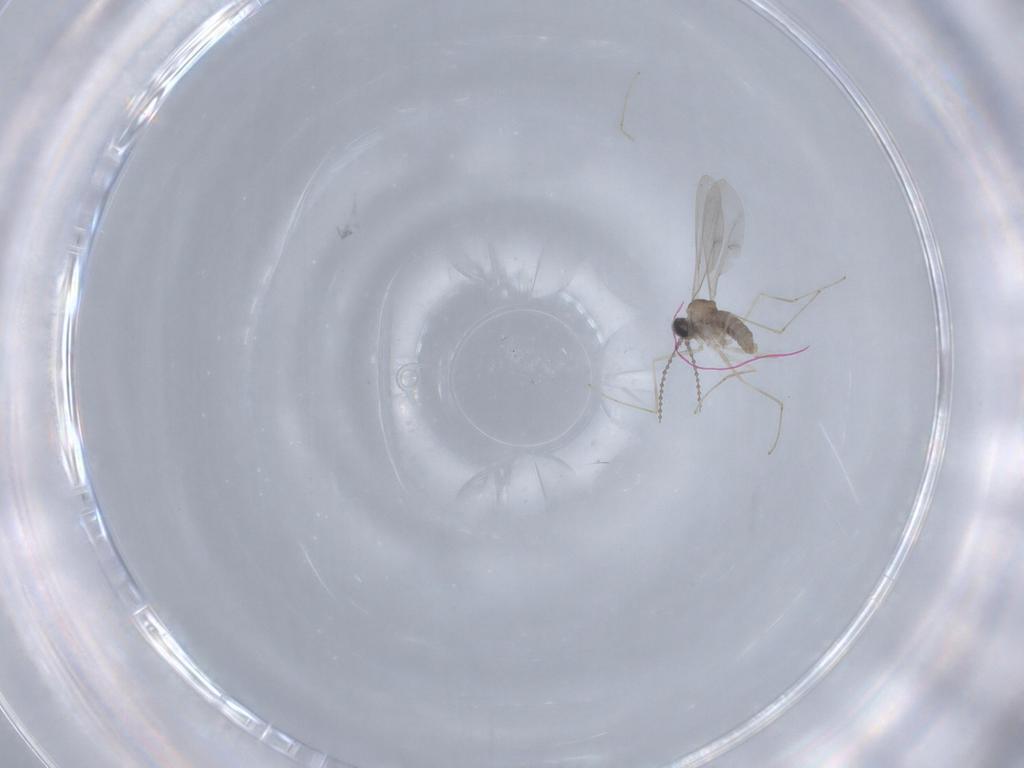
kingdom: Animalia
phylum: Arthropoda
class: Insecta
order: Diptera
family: Cecidomyiidae
